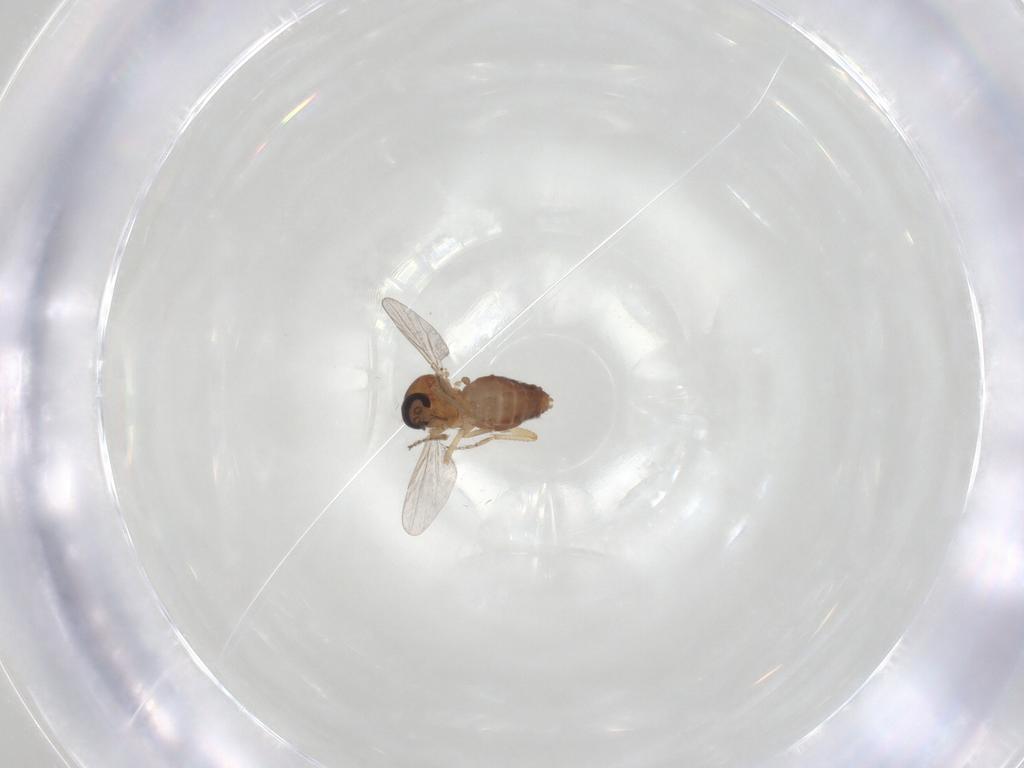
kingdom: Animalia
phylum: Arthropoda
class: Insecta
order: Diptera
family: Ceratopogonidae
